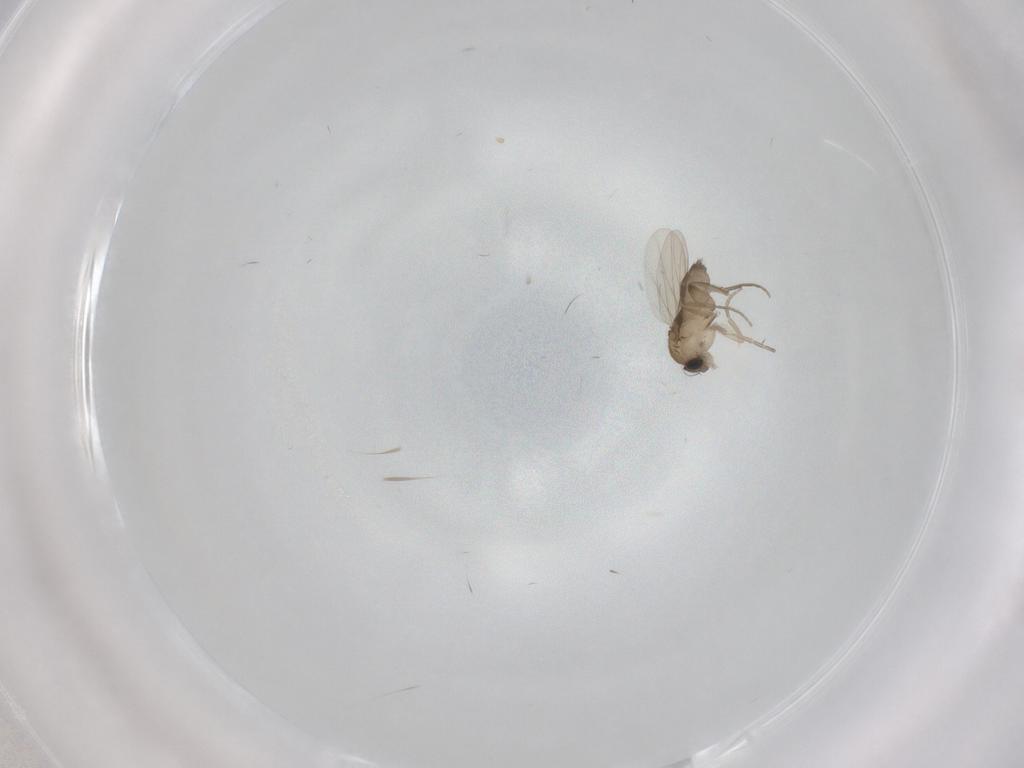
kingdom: Animalia
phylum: Arthropoda
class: Insecta
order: Diptera
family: Phoridae
